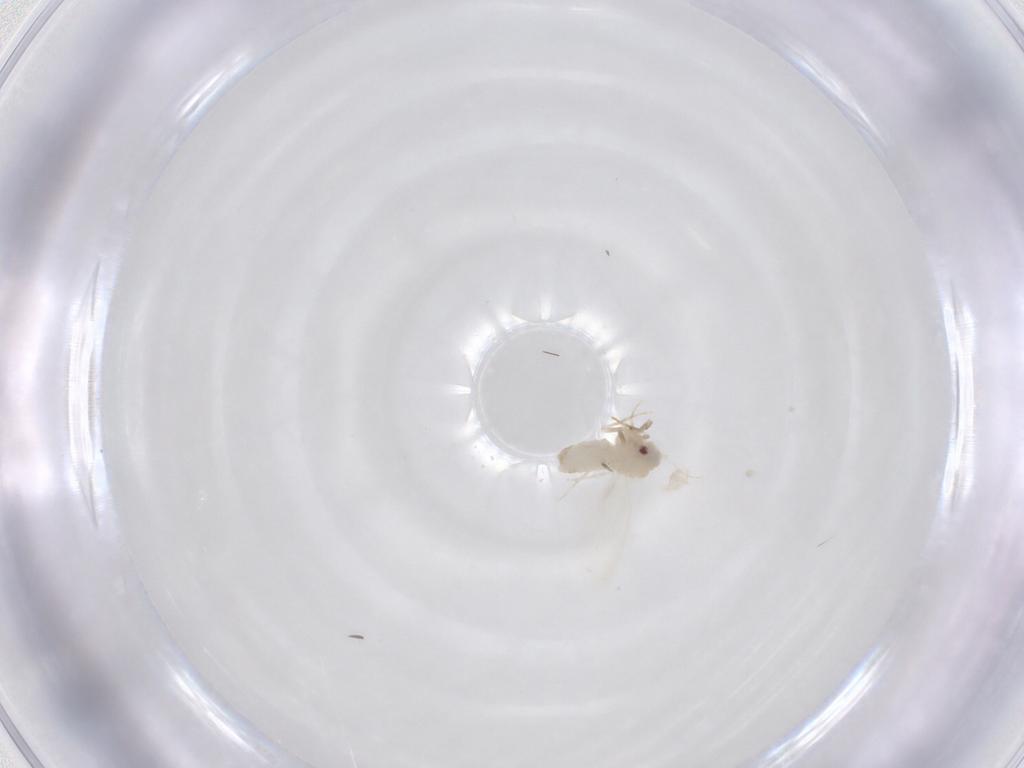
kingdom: Animalia
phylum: Arthropoda
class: Insecta
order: Hemiptera
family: Aleyrodidae
